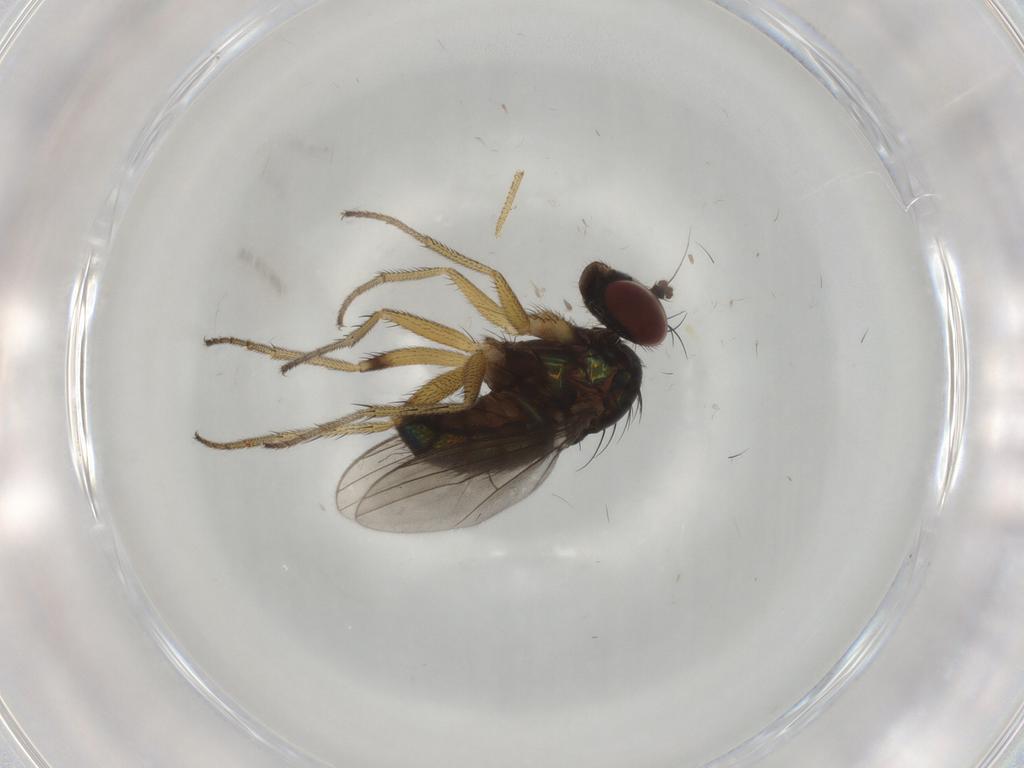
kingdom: Animalia
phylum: Arthropoda
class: Insecta
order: Diptera
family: Dolichopodidae
